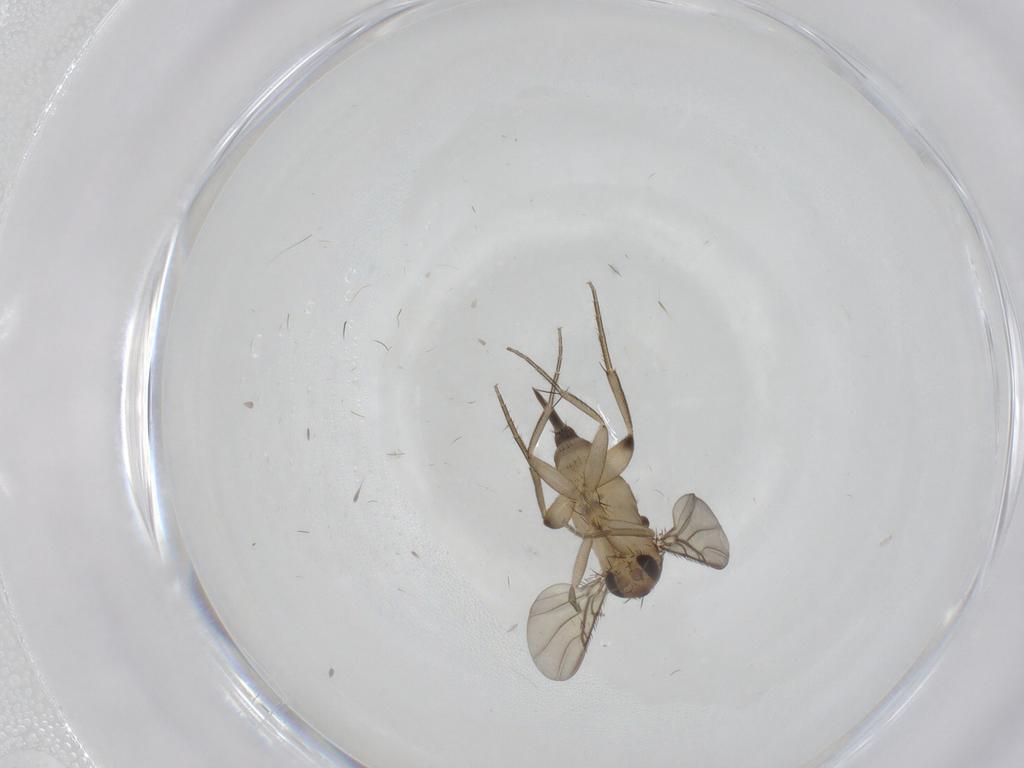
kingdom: Animalia
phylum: Arthropoda
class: Insecta
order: Diptera
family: Phoridae
